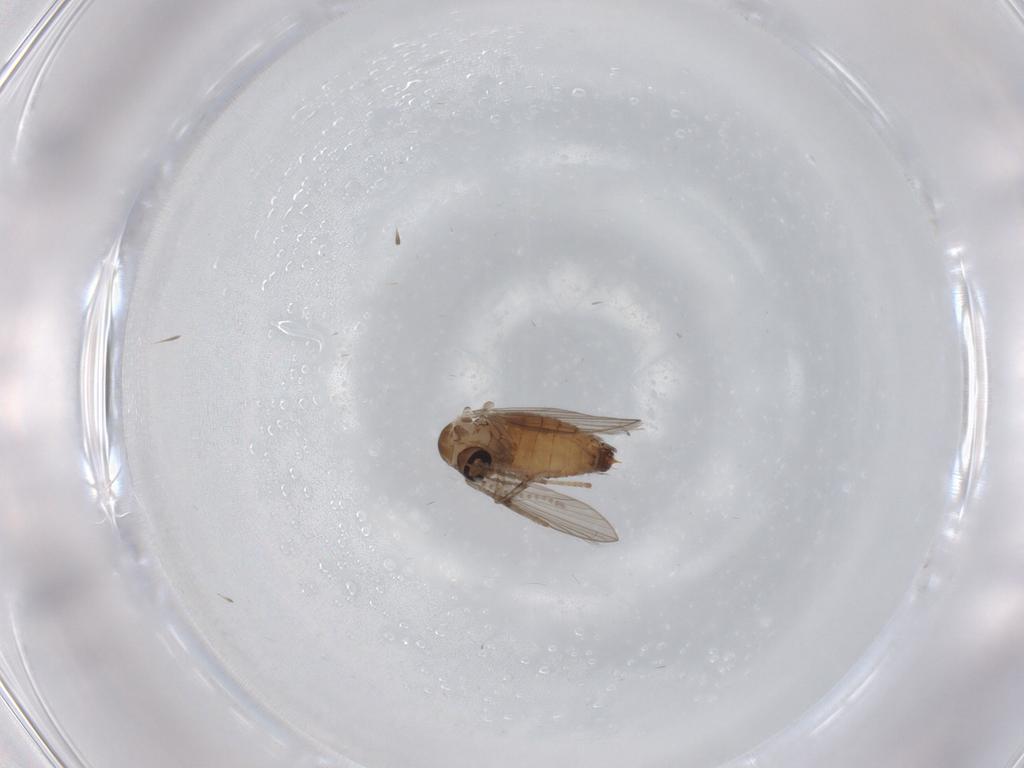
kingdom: Animalia
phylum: Arthropoda
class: Insecta
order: Diptera
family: Psychodidae
